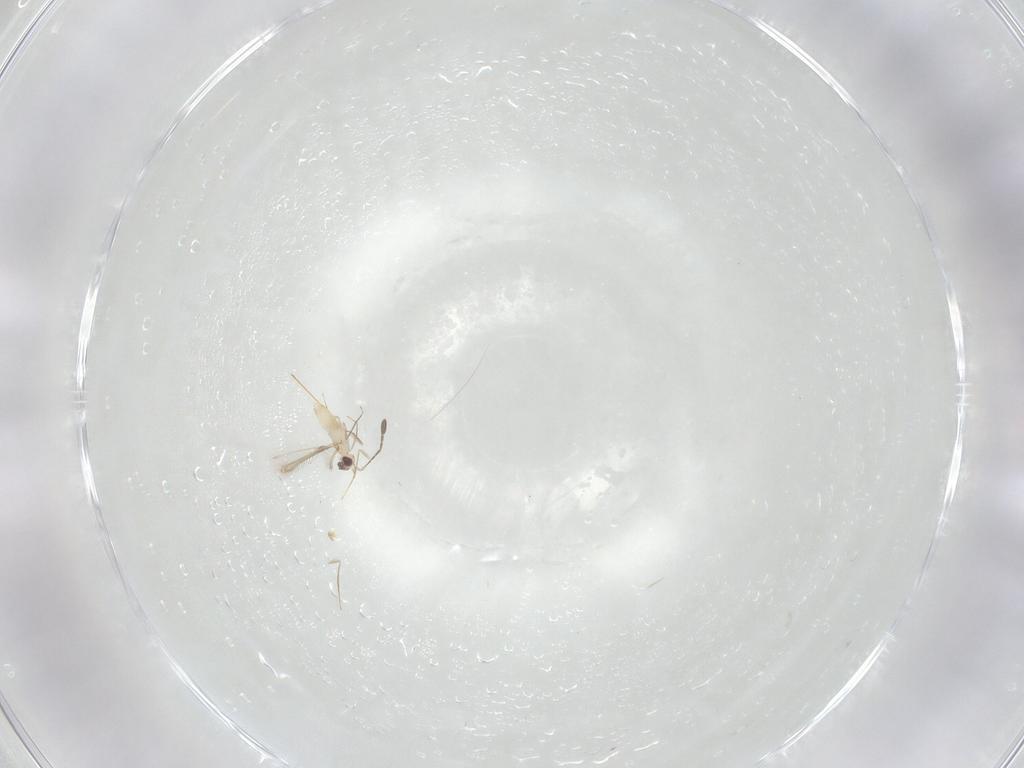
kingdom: Animalia
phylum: Arthropoda
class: Insecta
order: Hymenoptera
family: Mymaridae
